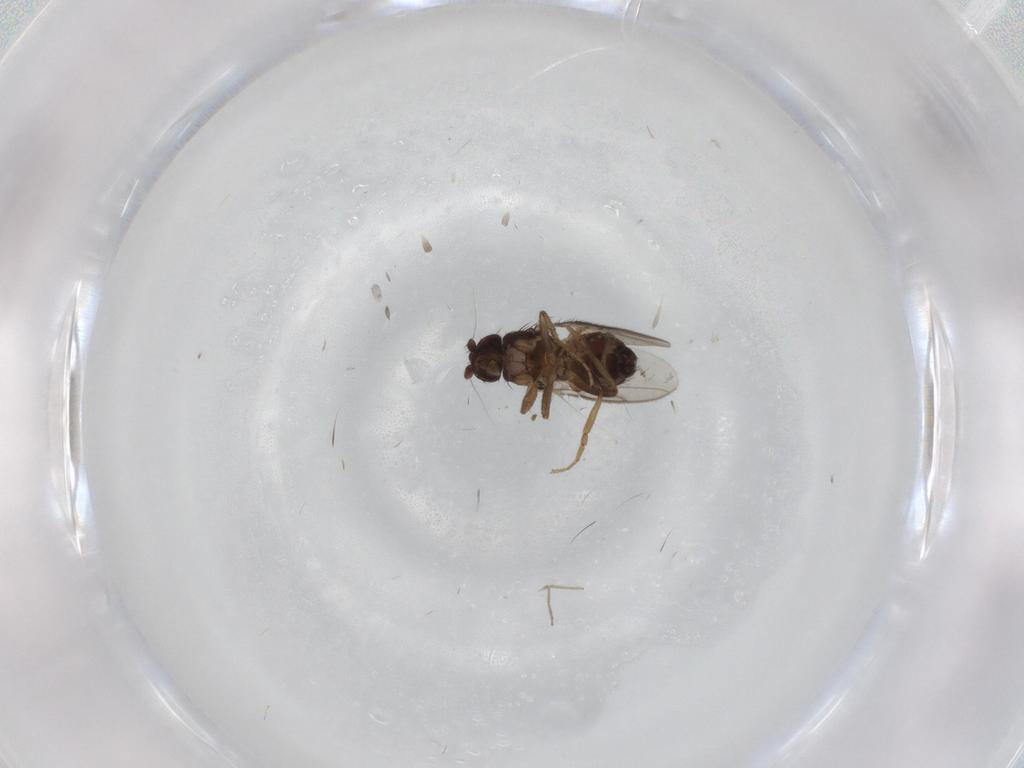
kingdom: Animalia
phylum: Arthropoda
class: Insecta
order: Diptera
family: Sphaeroceridae
